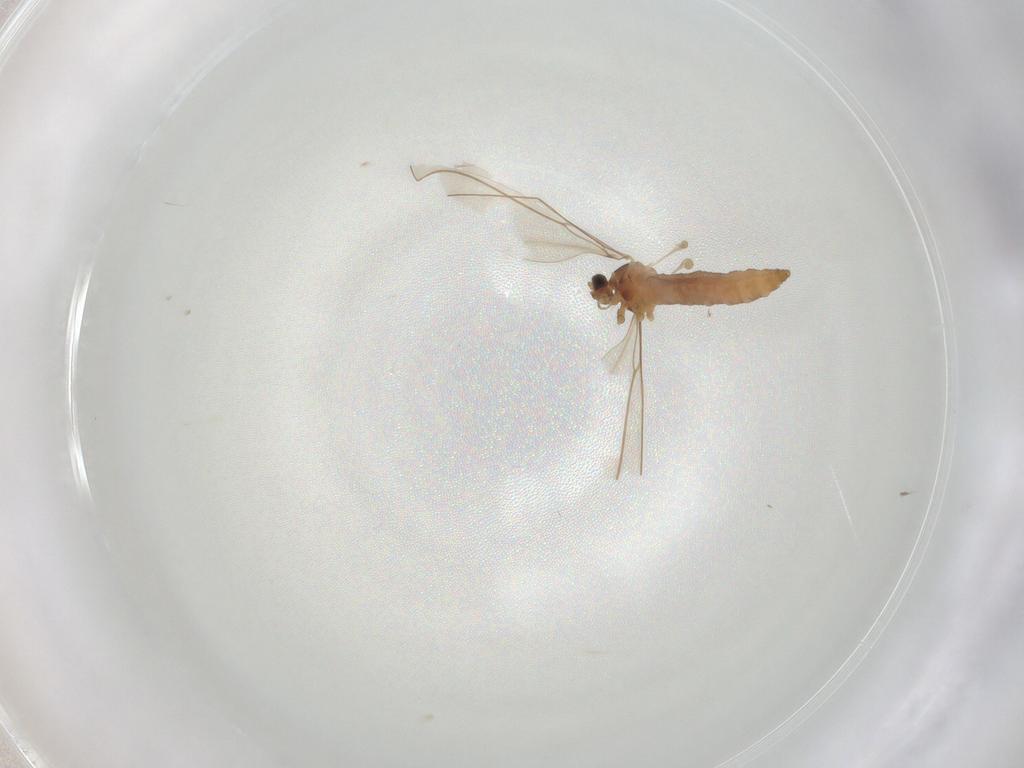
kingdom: Animalia
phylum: Arthropoda
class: Insecta
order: Diptera
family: Cecidomyiidae
